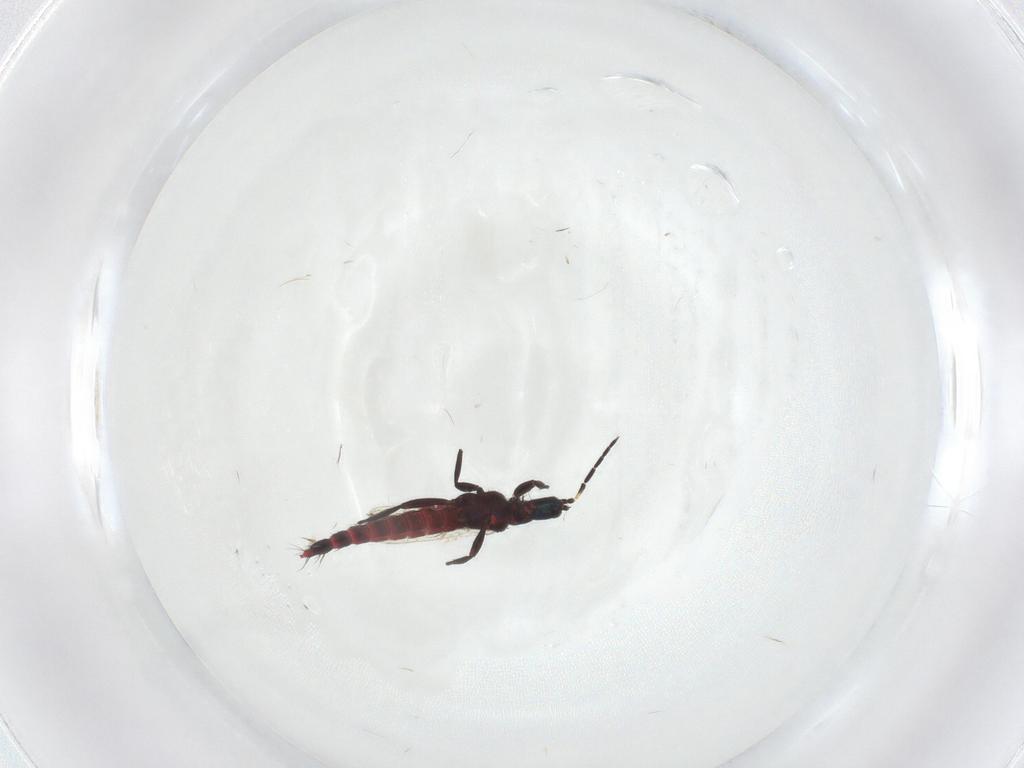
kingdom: Animalia
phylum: Arthropoda
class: Insecta
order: Thysanoptera
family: Aeolothripidae
